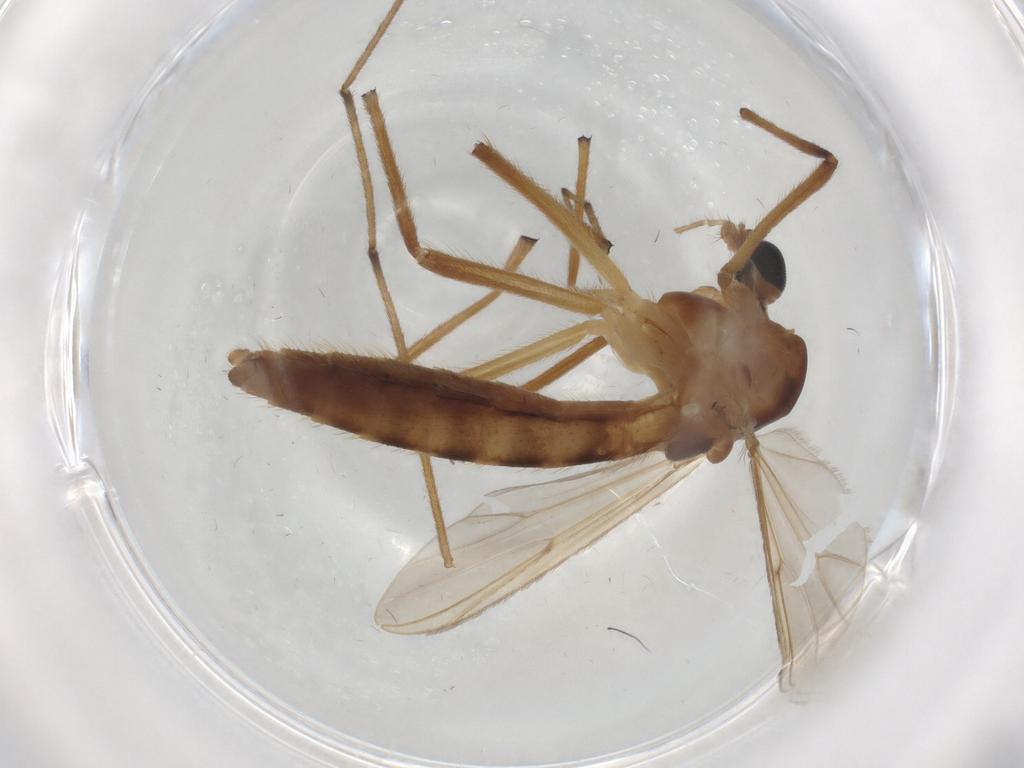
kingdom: Animalia
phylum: Arthropoda
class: Insecta
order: Diptera
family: Chironomidae
